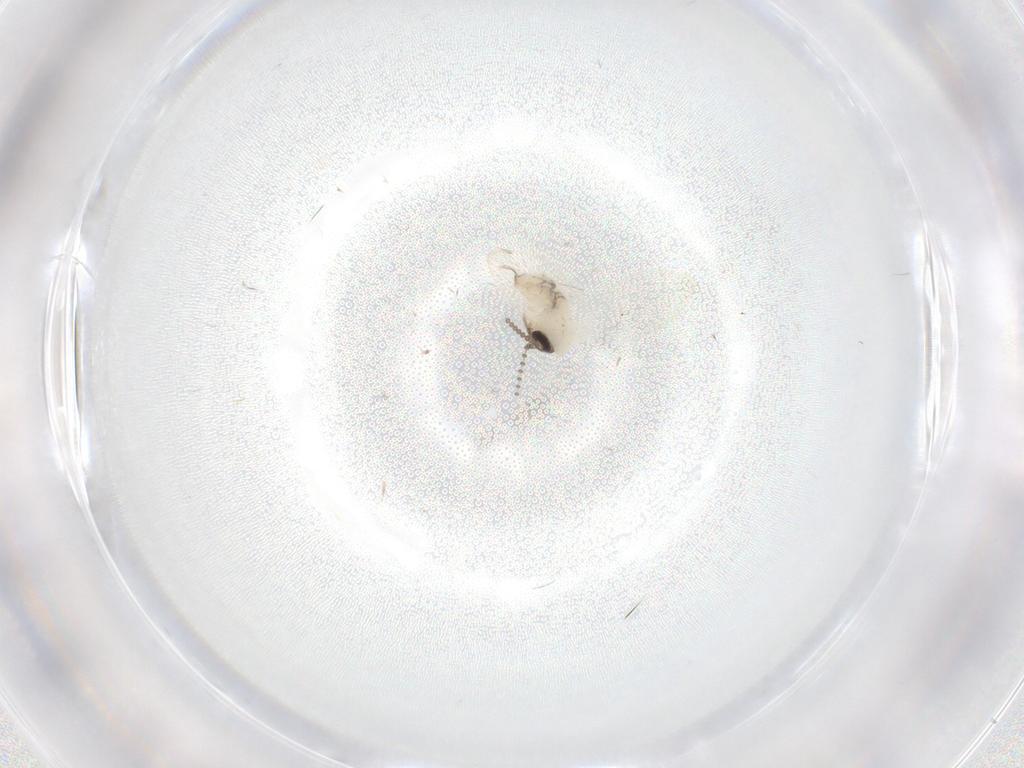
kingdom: Animalia
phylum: Arthropoda
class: Insecta
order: Diptera
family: Psychodidae
